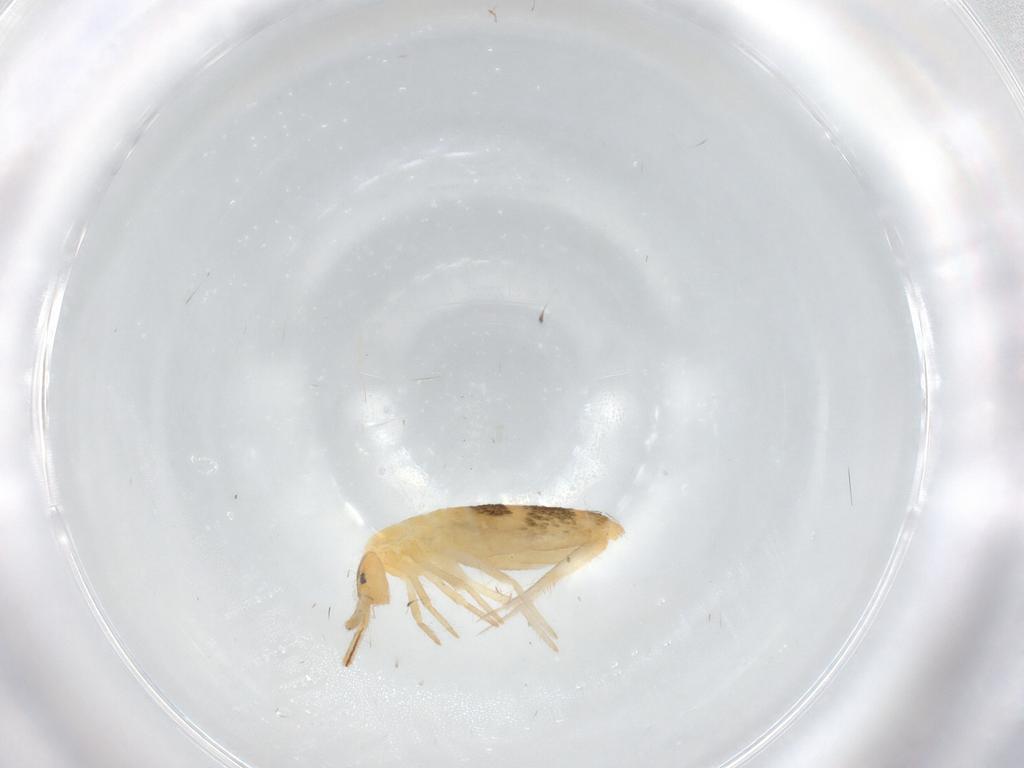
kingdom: Animalia
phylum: Arthropoda
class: Collembola
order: Entomobryomorpha
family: Entomobryidae
